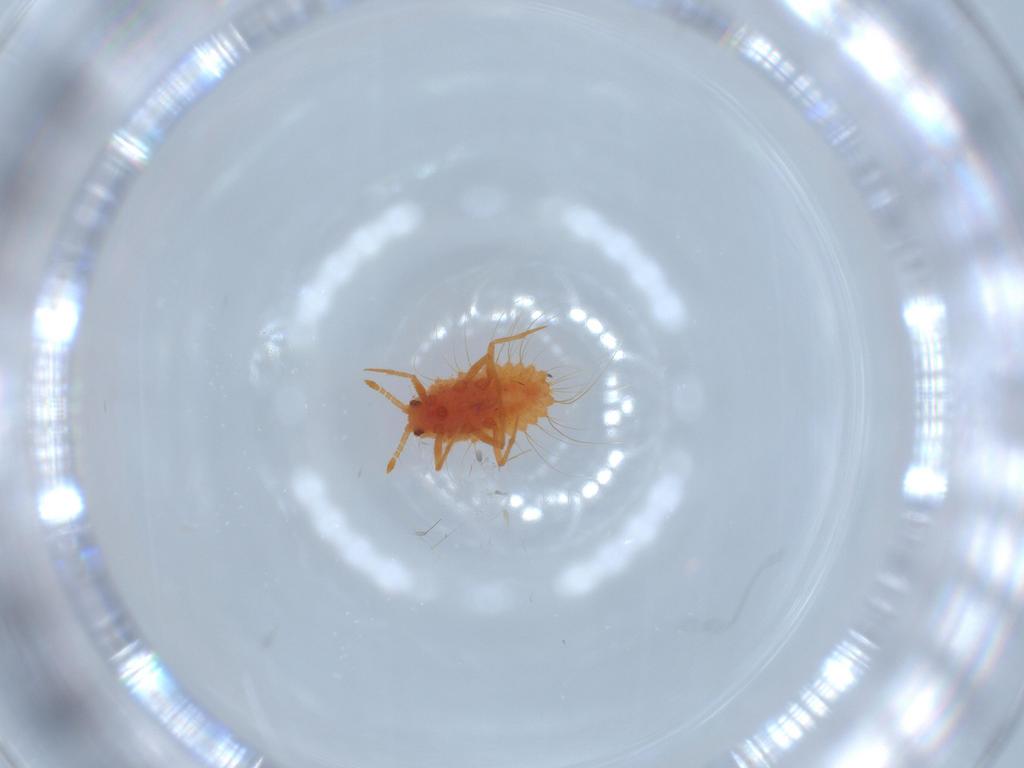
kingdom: Animalia
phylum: Arthropoda
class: Insecta
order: Hemiptera
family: Monophlebidae
